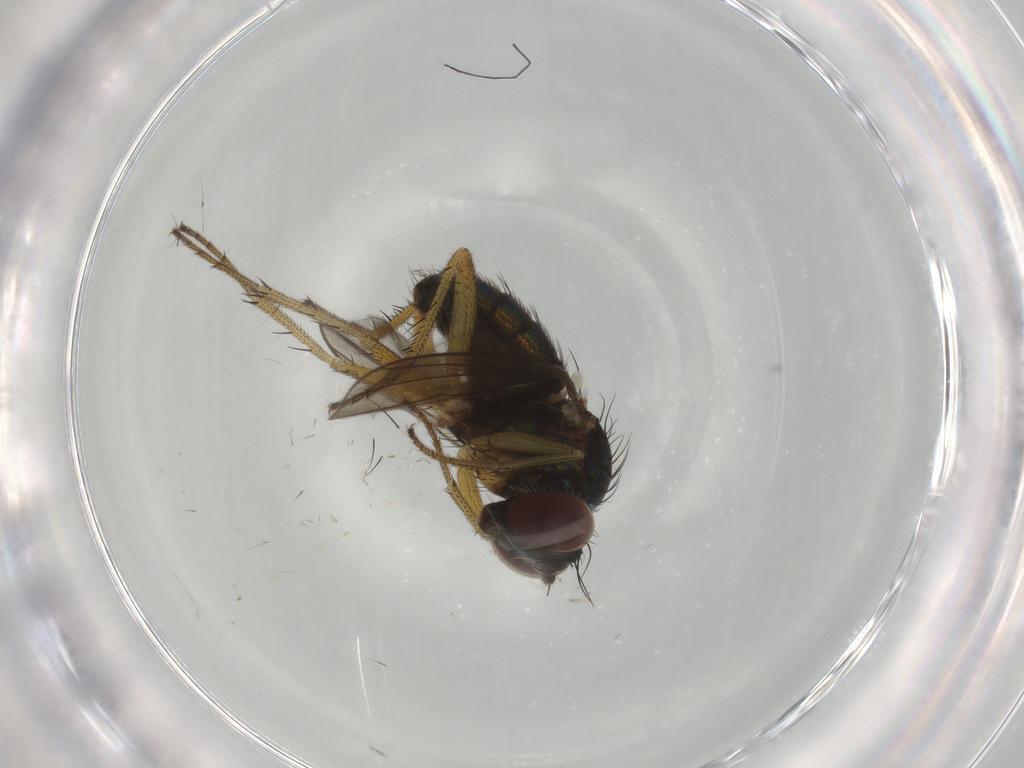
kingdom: Animalia
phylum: Arthropoda
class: Insecta
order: Diptera
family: Dolichopodidae
